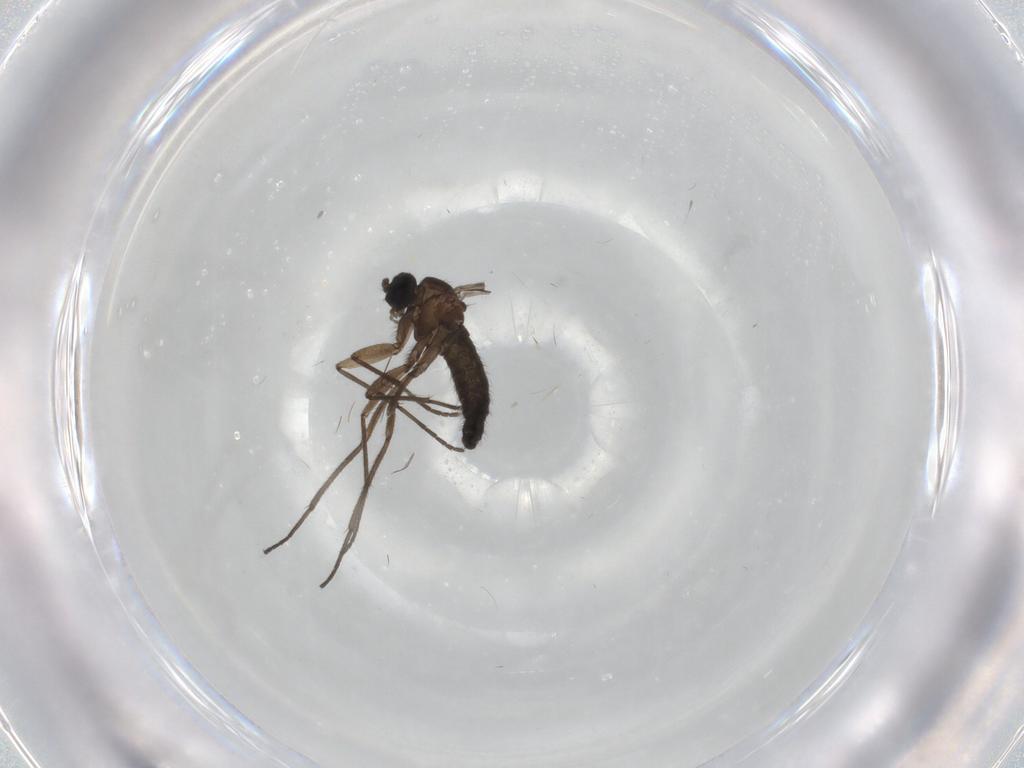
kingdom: Animalia
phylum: Arthropoda
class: Insecta
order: Diptera
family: Sciaridae
